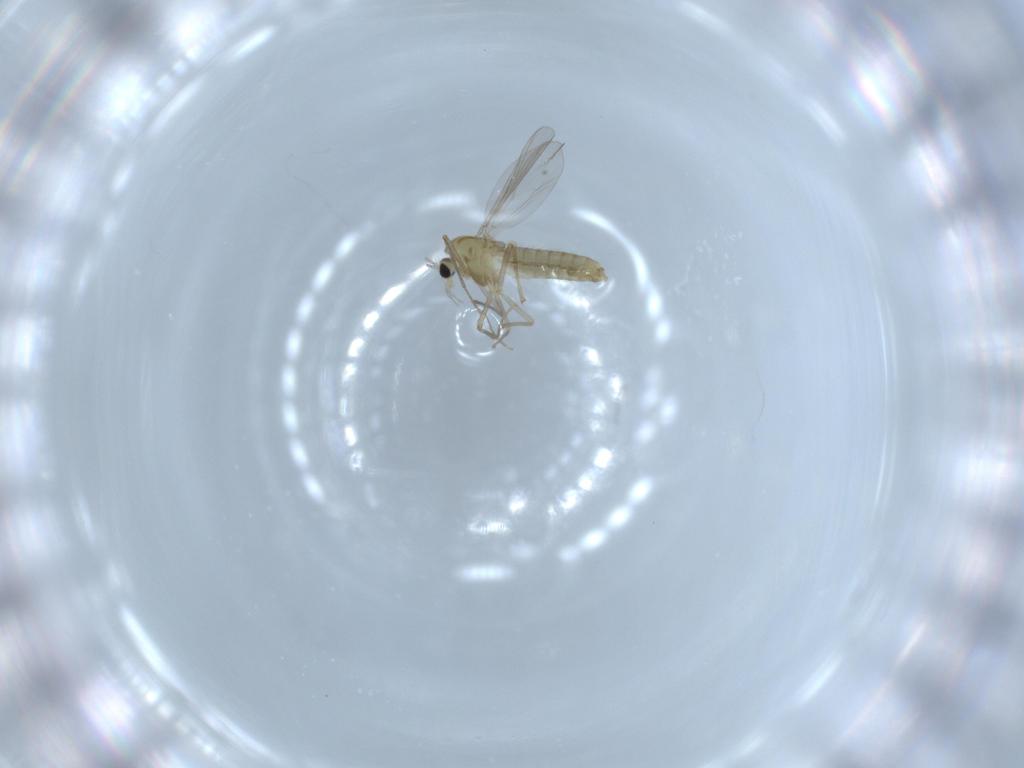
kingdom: Animalia
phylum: Arthropoda
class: Insecta
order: Diptera
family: Chironomidae
